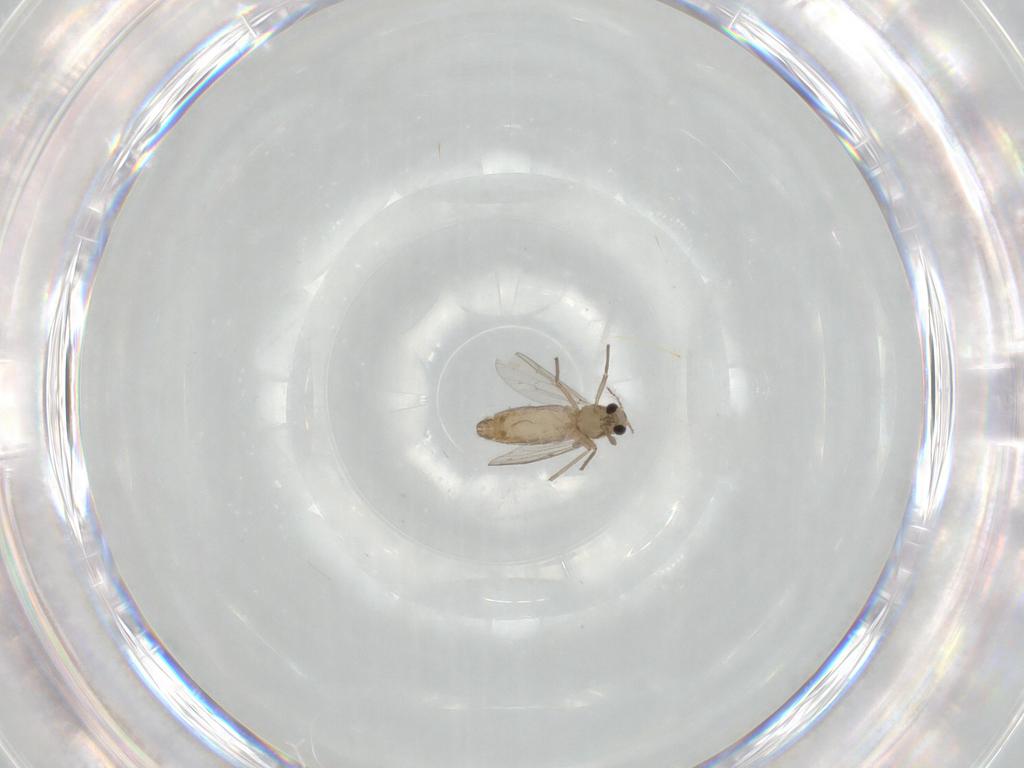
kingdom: Animalia
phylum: Arthropoda
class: Insecta
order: Diptera
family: Chironomidae
